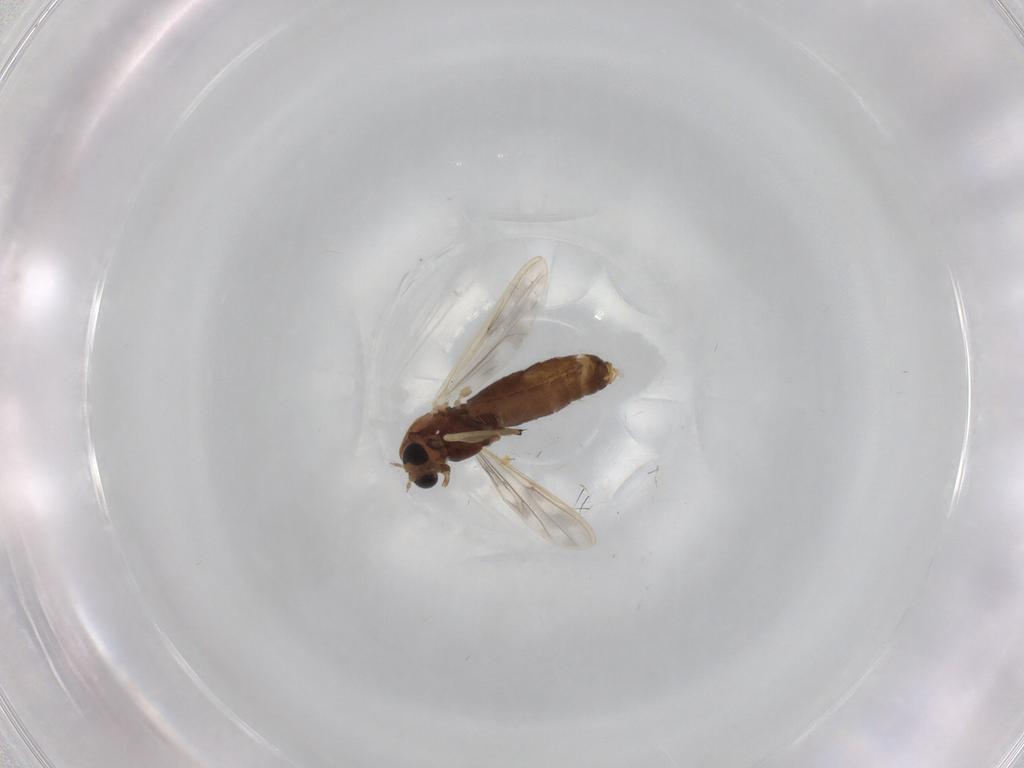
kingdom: Animalia
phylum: Arthropoda
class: Insecta
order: Diptera
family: Chironomidae
